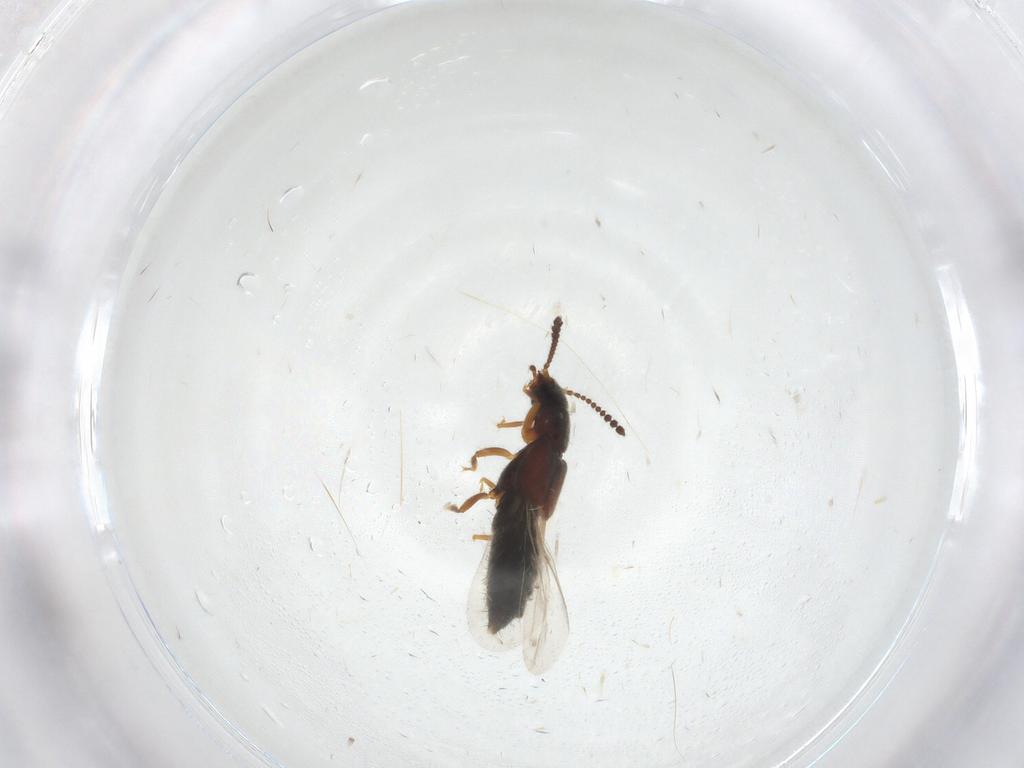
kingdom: Animalia
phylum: Arthropoda
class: Insecta
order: Coleoptera
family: Staphylinidae
